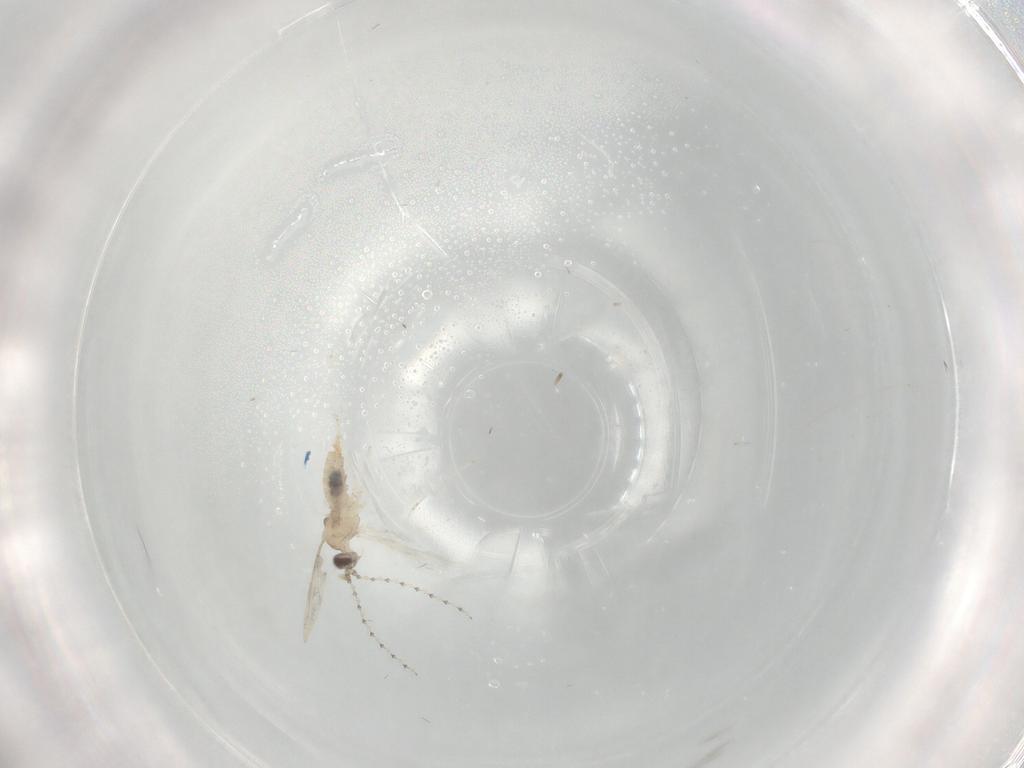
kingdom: Animalia
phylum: Arthropoda
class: Insecta
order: Diptera
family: Cecidomyiidae
